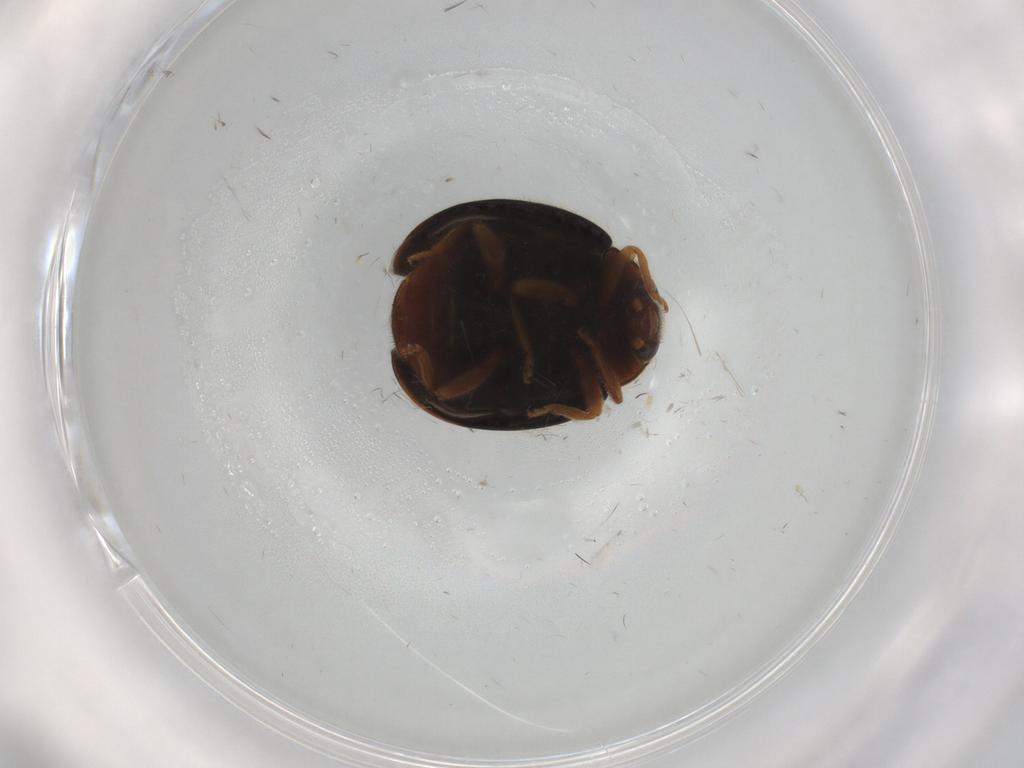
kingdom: Animalia
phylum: Arthropoda
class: Insecta
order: Coleoptera
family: Coccinellidae
